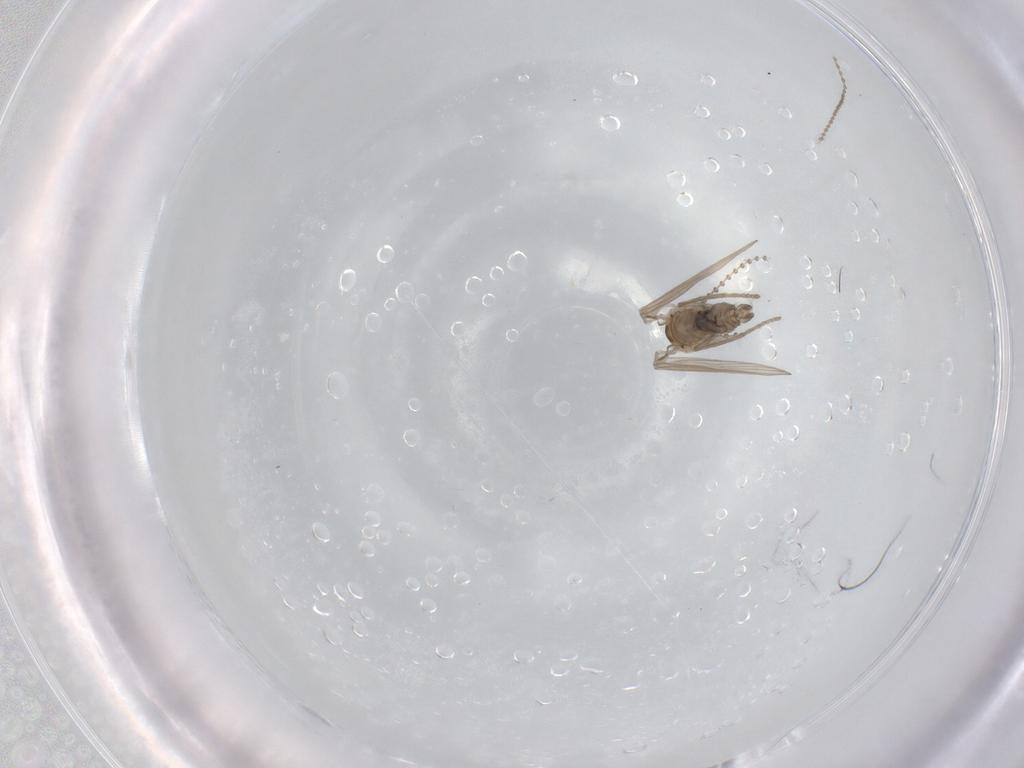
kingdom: Animalia
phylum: Arthropoda
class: Insecta
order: Diptera
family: Psychodidae
